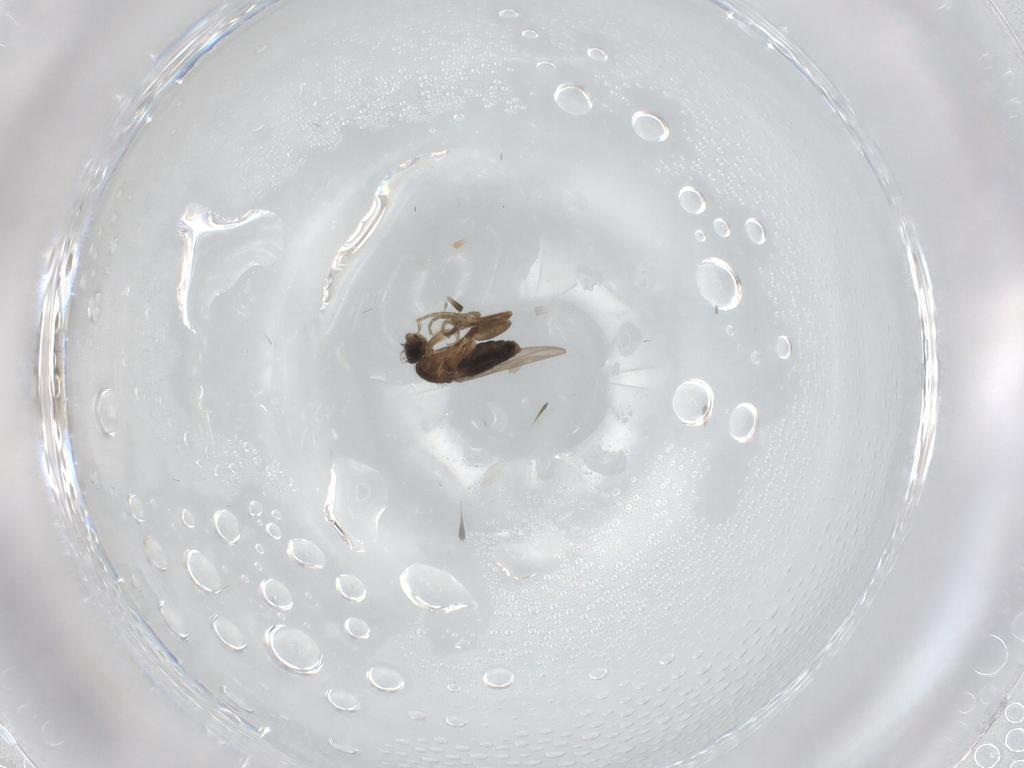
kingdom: Animalia
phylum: Arthropoda
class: Insecta
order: Diptera
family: Phoridae
